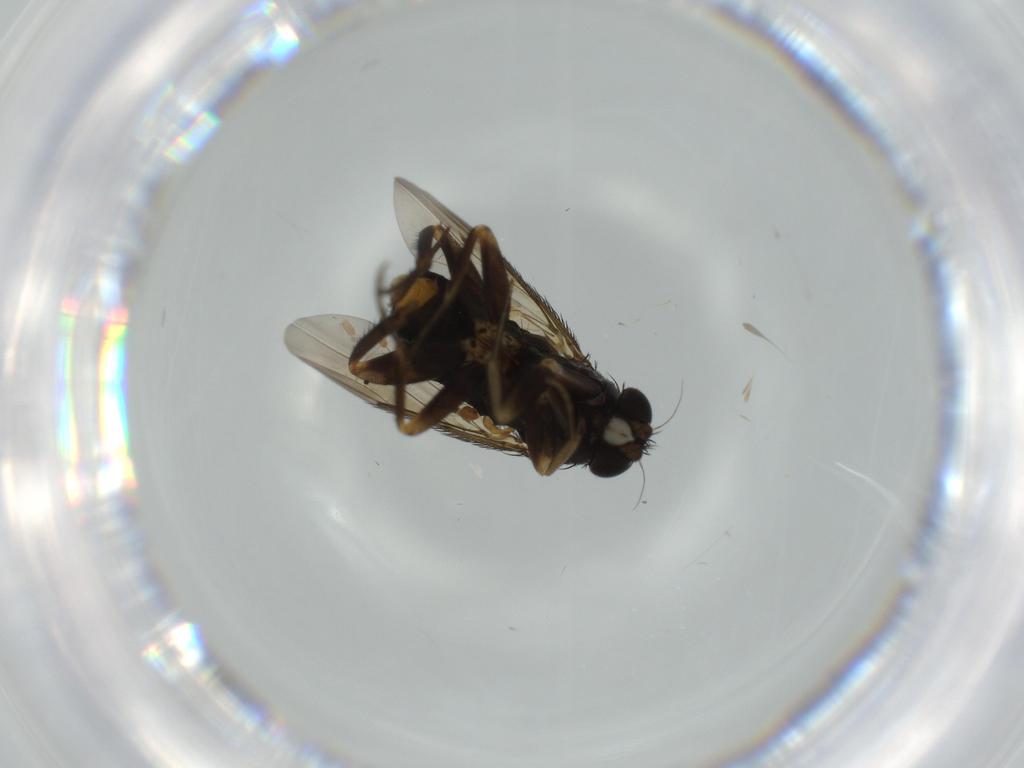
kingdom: Animalia
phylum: Arthropoda
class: Insecta
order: Diptera
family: Phoridae
